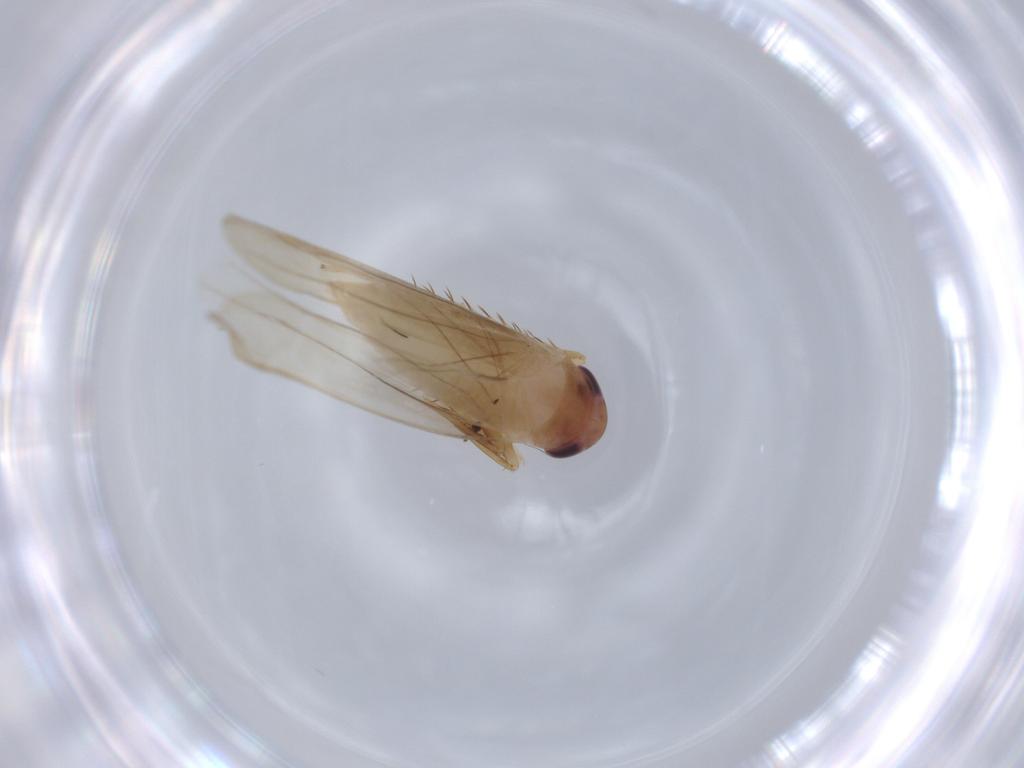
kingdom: Animalia
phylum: Arthropoda
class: Insecta
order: Hemiptera
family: Cicadellidae
